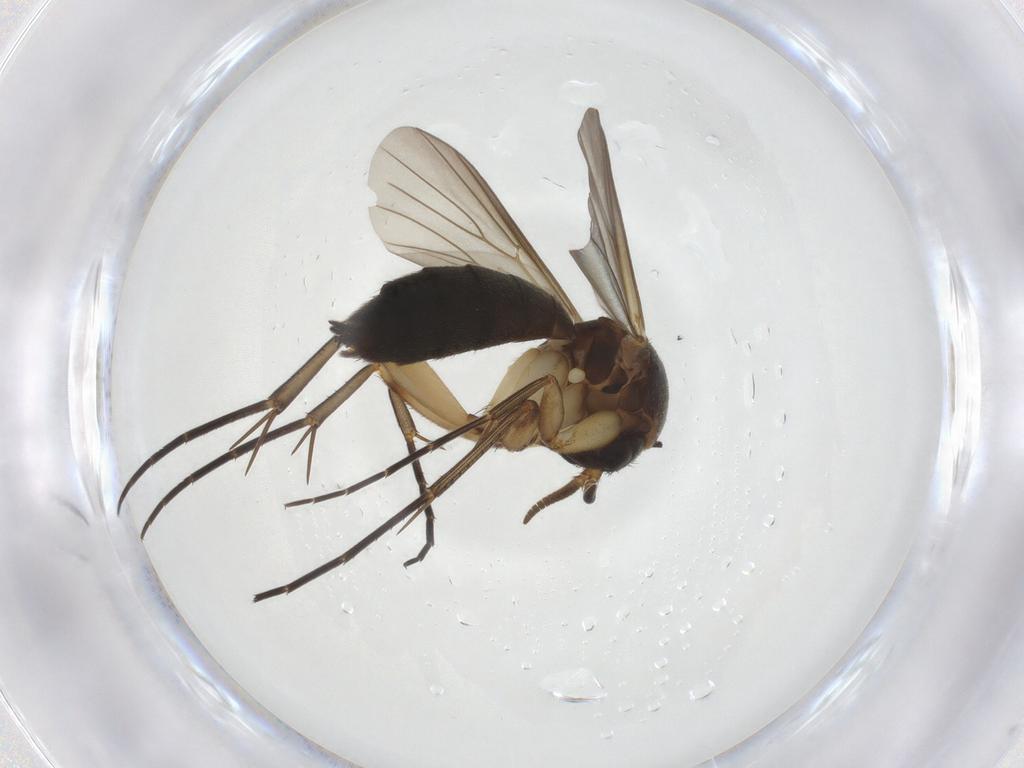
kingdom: Animalia
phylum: Arthropoda
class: Insecta
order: Diptera
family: Mycetophilidae
